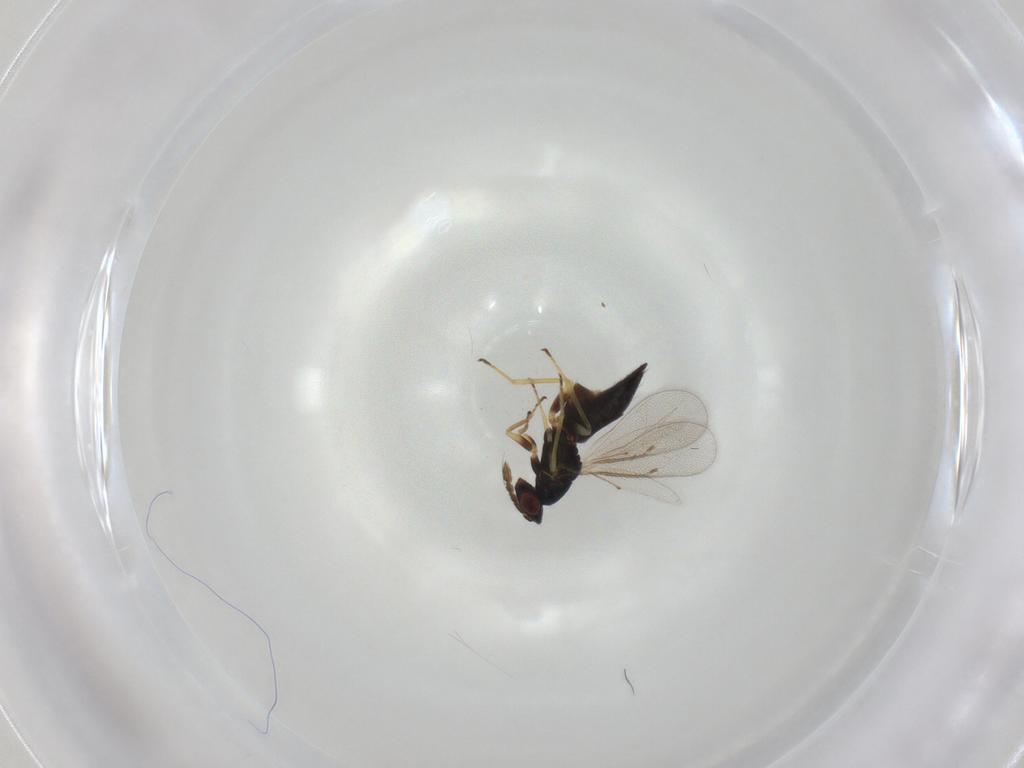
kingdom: Animalia
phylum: Arthropoda
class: Insecta
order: Hymenoptera
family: Eulophidae
